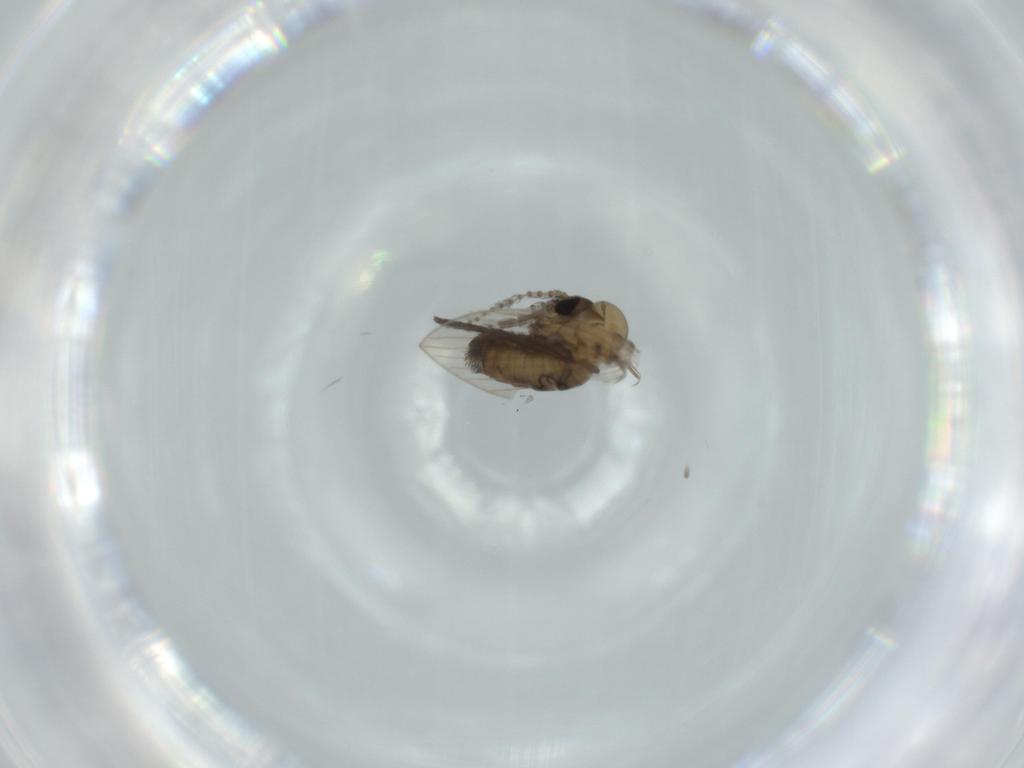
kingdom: Animalia
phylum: Arthropoda
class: Insecta
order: Diptera
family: Psychodidae
